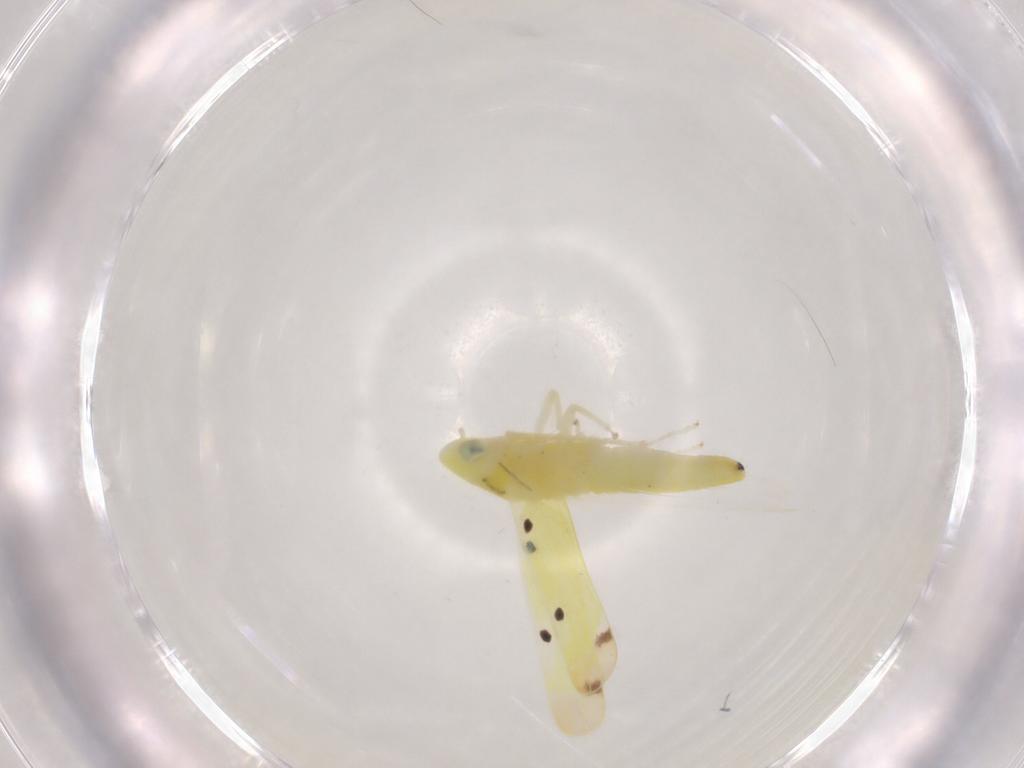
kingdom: Animalia
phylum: Arthropoda
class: Insecta
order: Hemiptera
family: Cicadellidae
